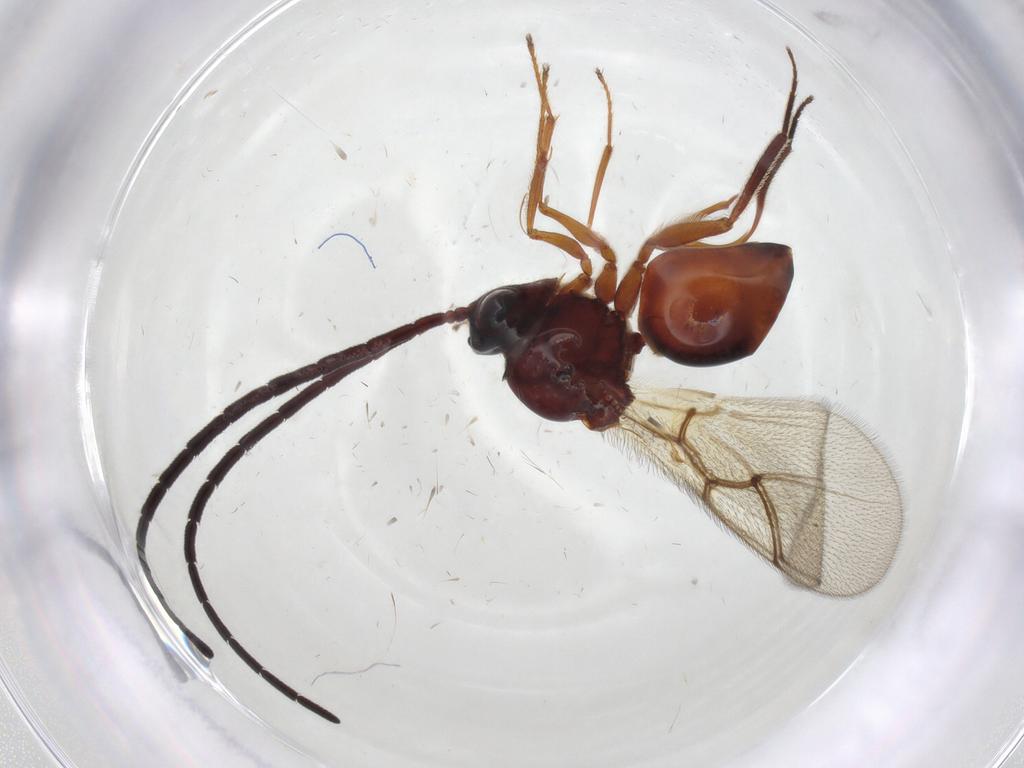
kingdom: Animalia
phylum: Arthropoda
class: Insecta
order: Hymenoptera
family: Figitidae
